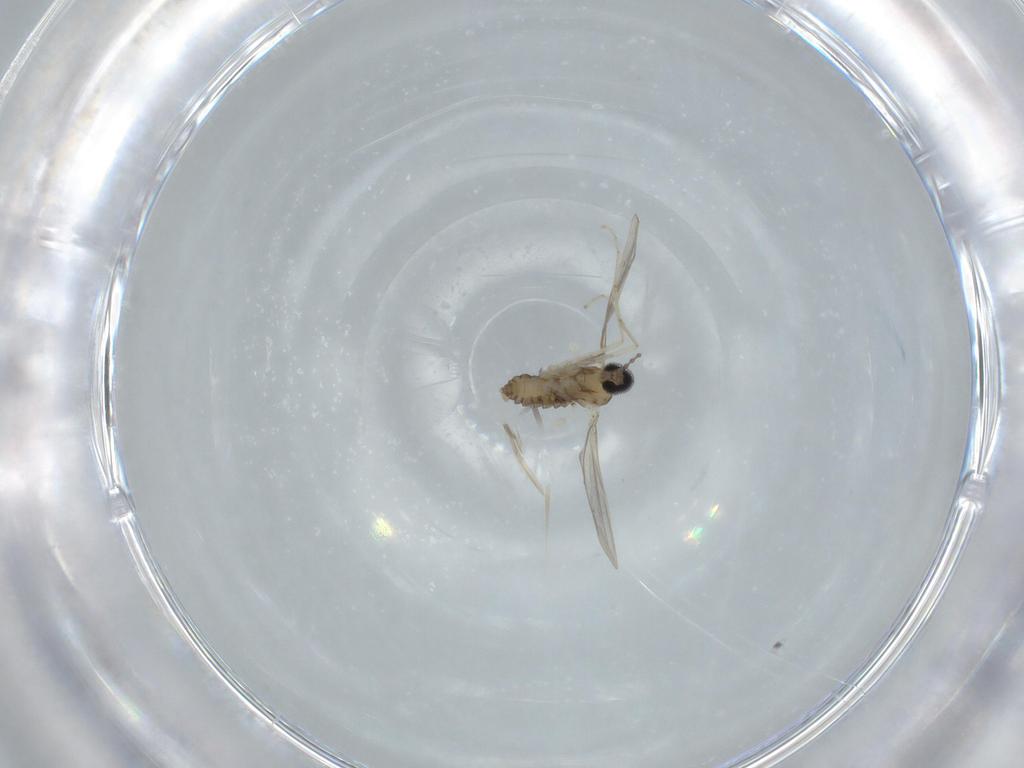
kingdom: Animalia
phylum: Arthropoda
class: Insecta
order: Diptera
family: Cecidomyiidae
